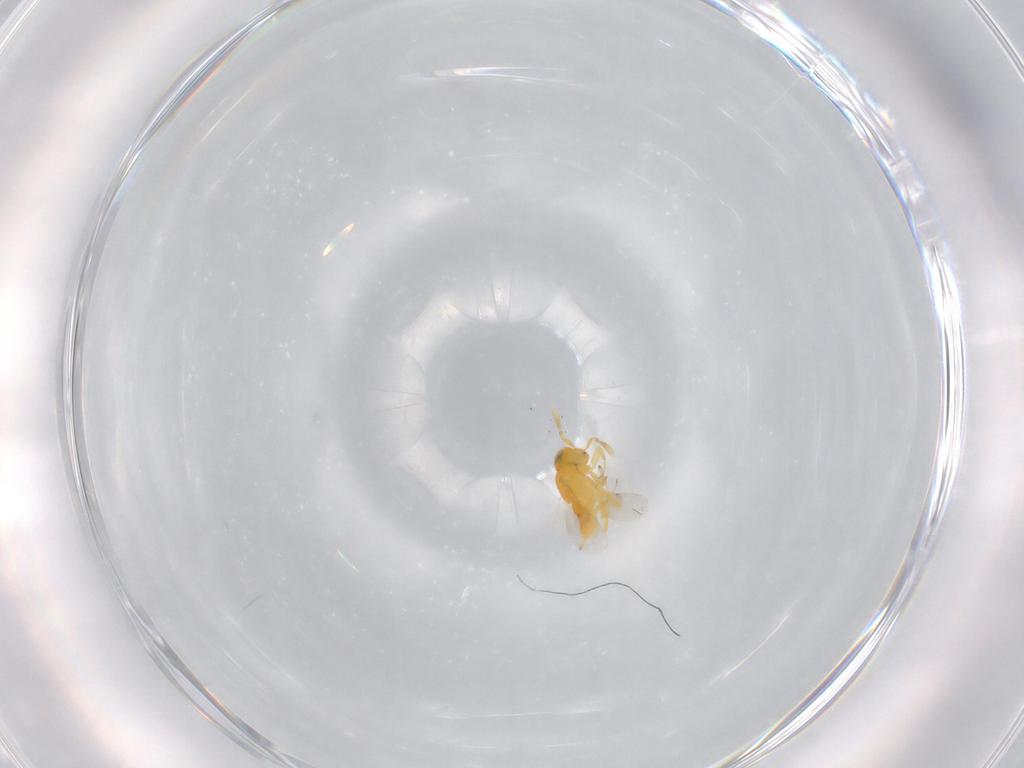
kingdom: Animalia
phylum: Arthropoda
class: Insecta
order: Hymenoptera
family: Encyrtidae
